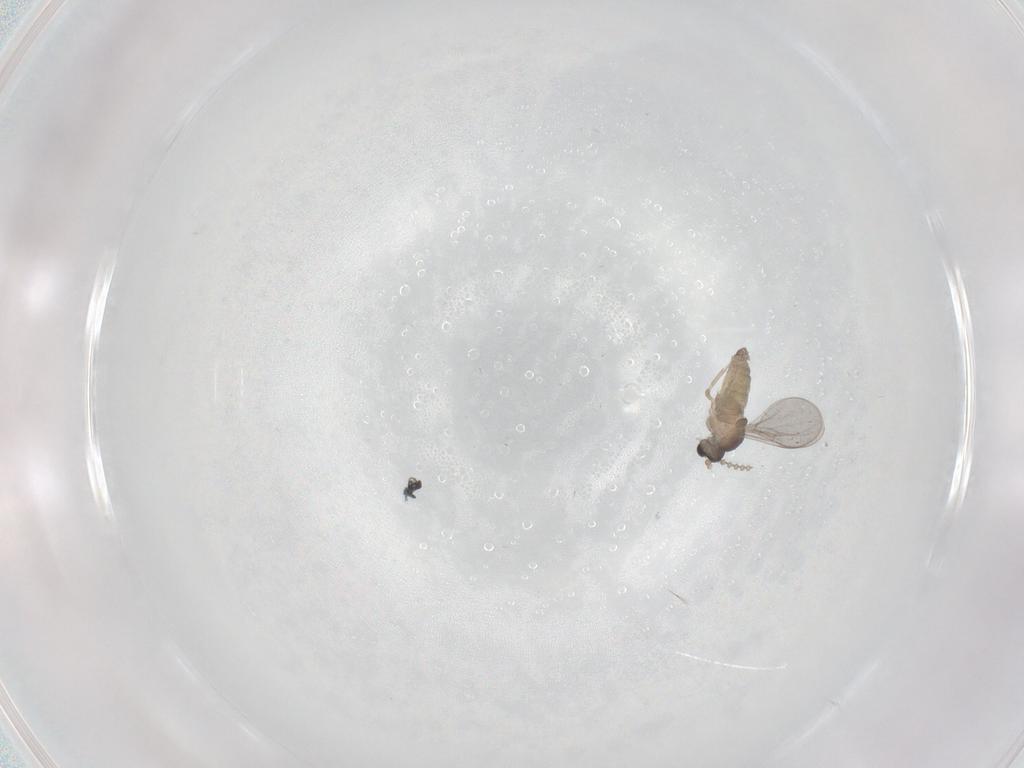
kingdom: Animalia
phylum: Arthropoda
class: Insecta
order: Diptera
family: Cecidomyiidae
